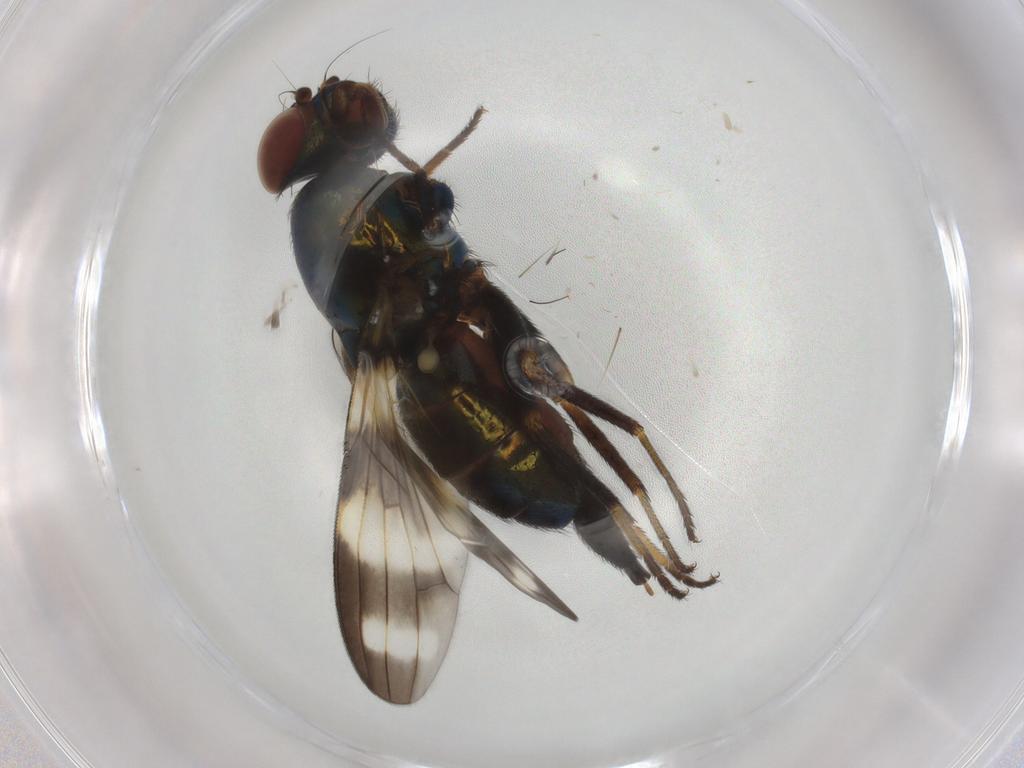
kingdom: Animalia
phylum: Arthropoda
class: Insecta
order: Diptera
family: Ulidiidae
